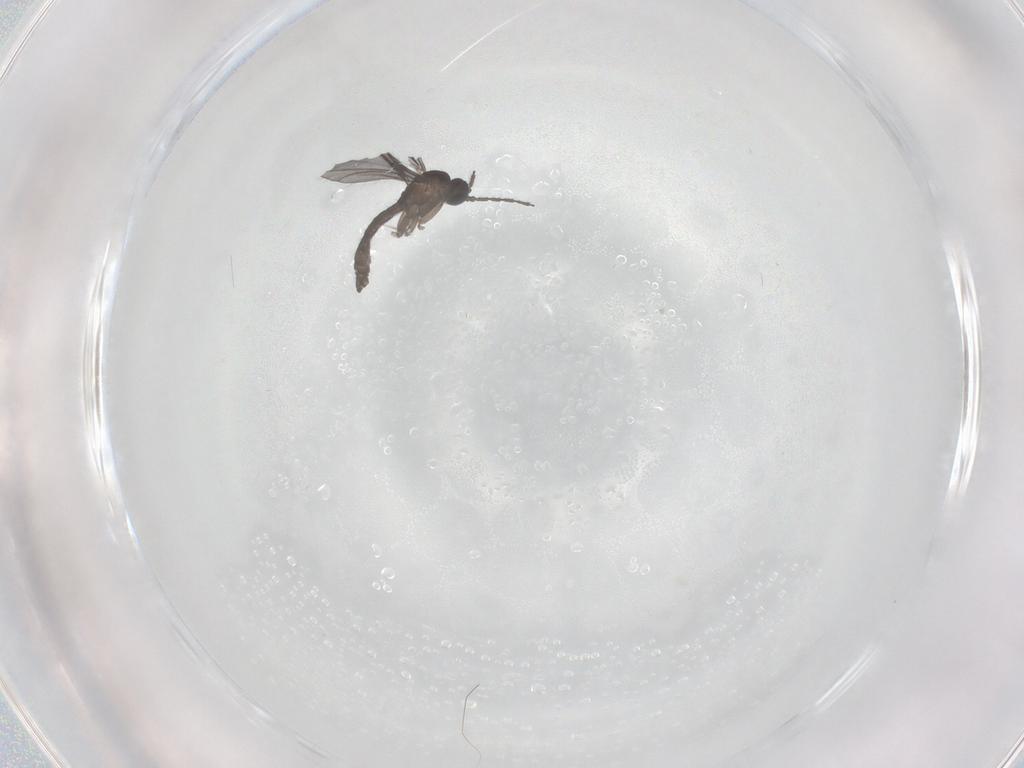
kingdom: Animalia
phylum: Arthropoda
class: Insecta
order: Diptera
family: Sciaridae
